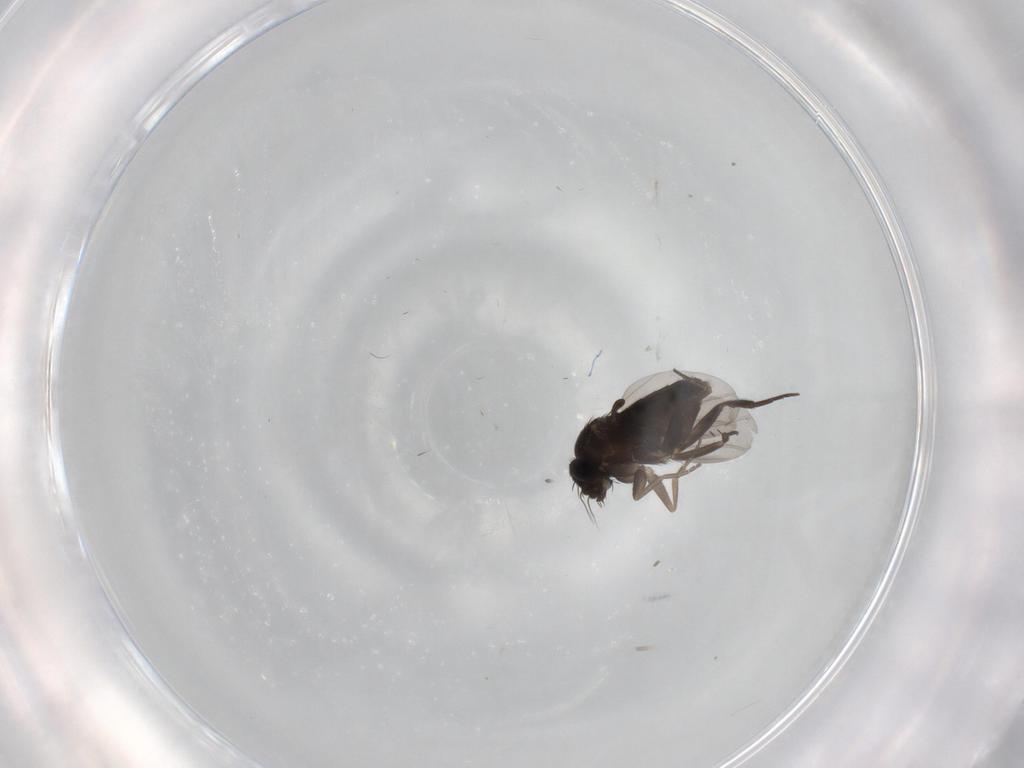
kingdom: Animalia
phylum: Arthropoda
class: Insecta
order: Diptera
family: Phoridae
